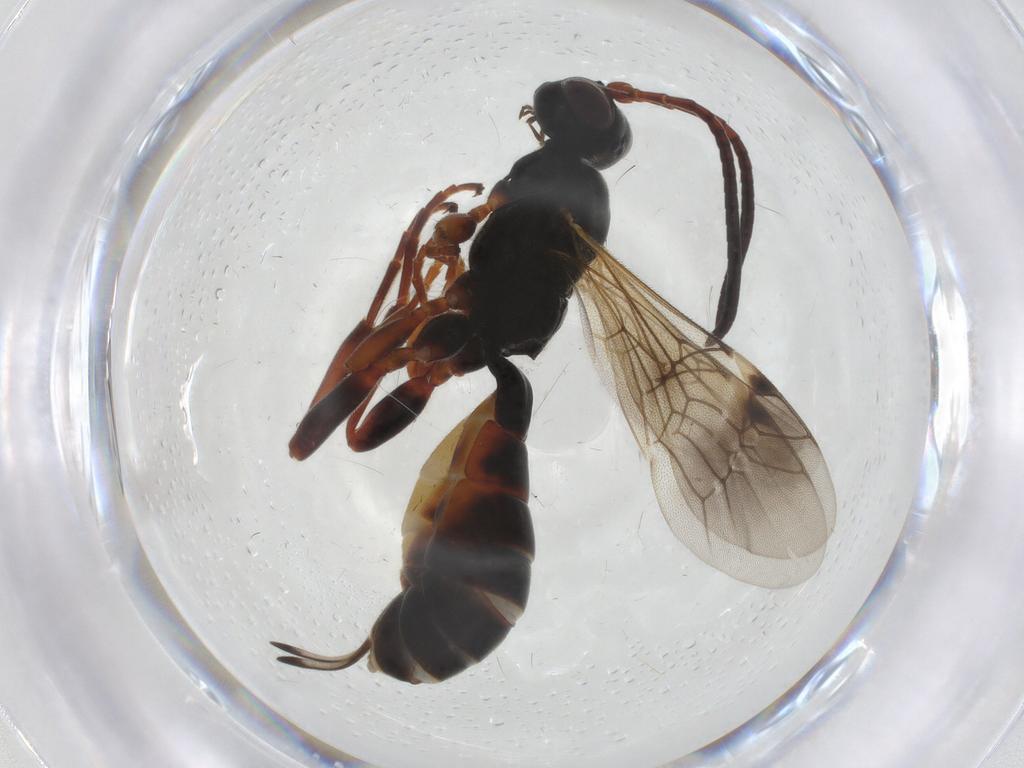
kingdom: Animalia
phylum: Arthropoda
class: Insecta
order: Hymenoptera
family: Ichneumonidae
